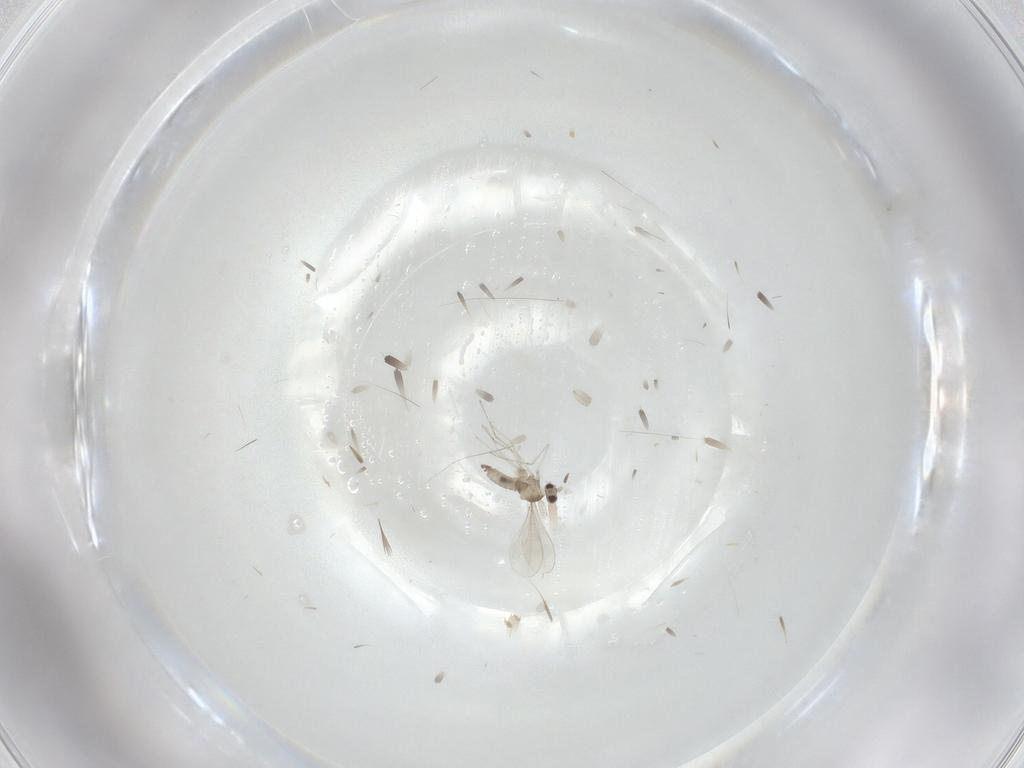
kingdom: Animalia
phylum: Arthropoda
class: Insecta
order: Diptera
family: Cecidomyiidae
